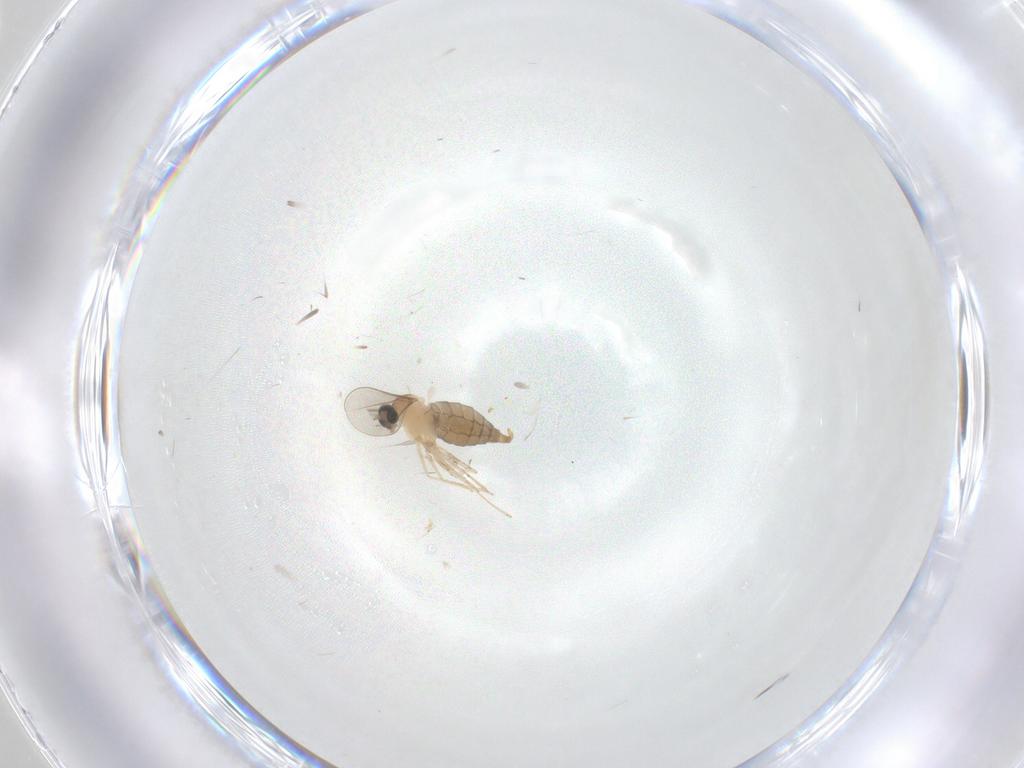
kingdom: Animalia
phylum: Arthropoda
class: Insecta
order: Diptera
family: Cecidomyiidae
